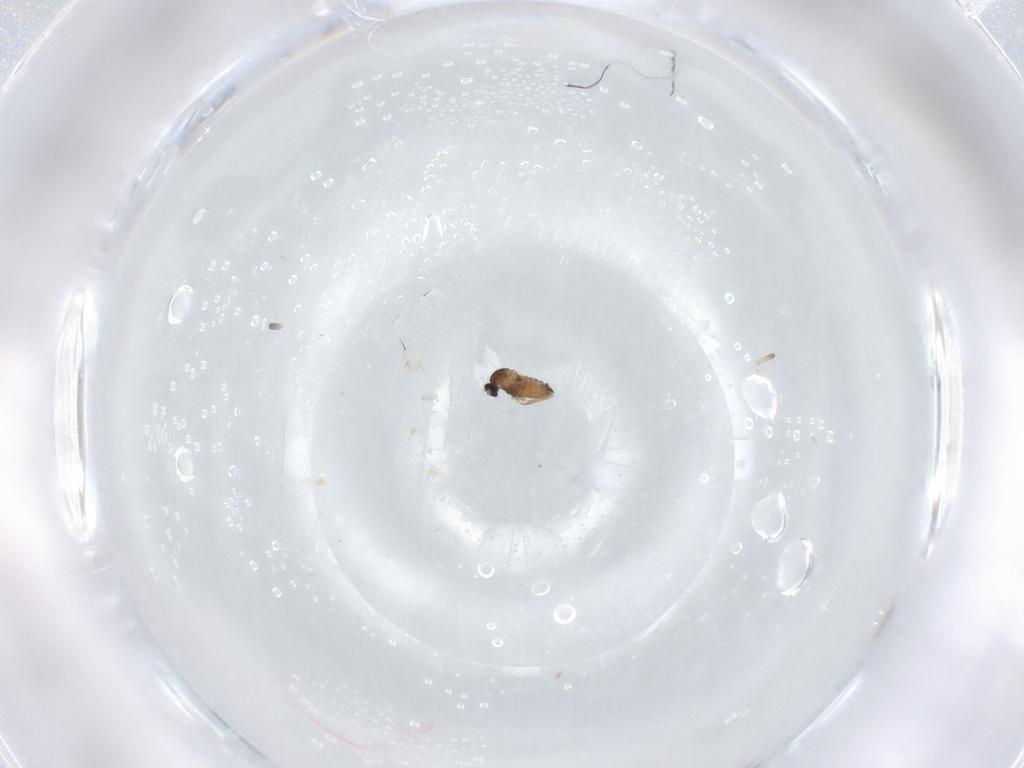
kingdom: Animalia
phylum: Arthropoda
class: Insecta
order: Diptera
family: Cecidomyiidae
